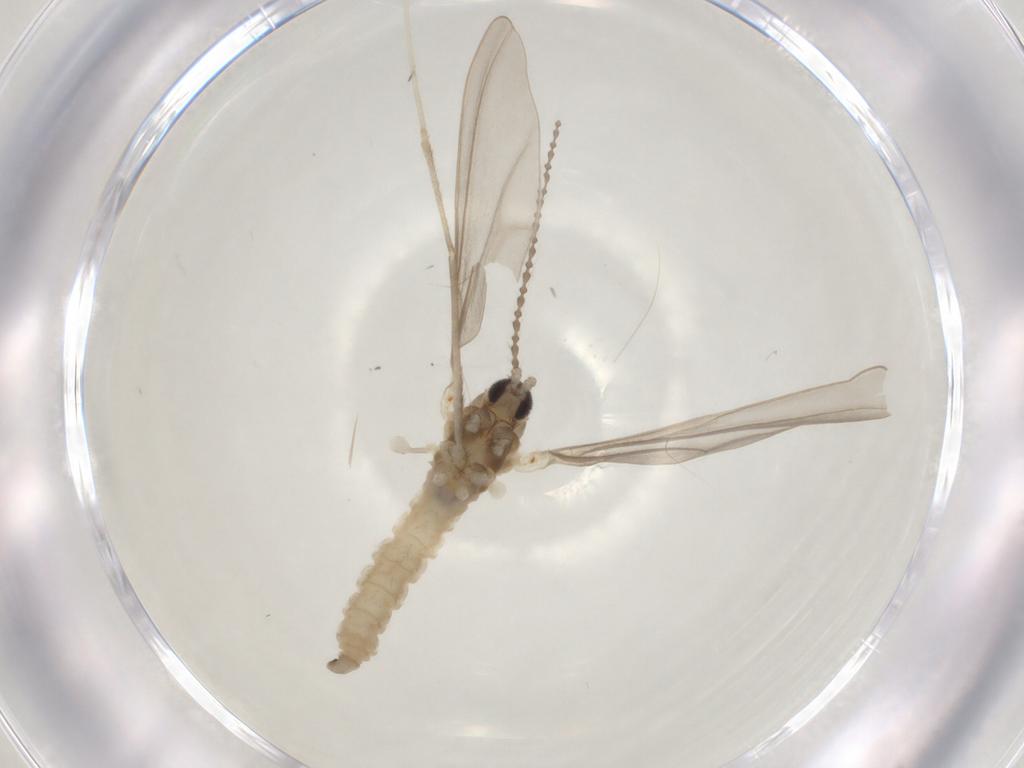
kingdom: Animalia
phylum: Arthropoda
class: Insecta
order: Diptera
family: Cecidomyiidae
